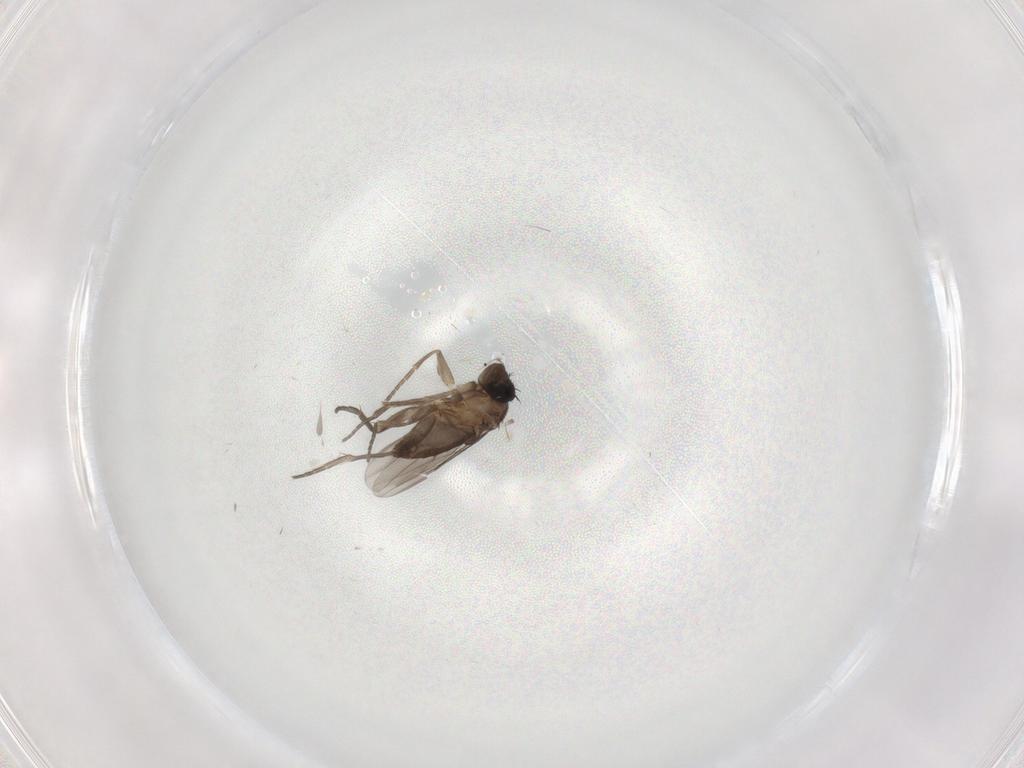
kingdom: Animalia
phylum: Arthropoda
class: Insecta
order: Diptera
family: Phoridae
